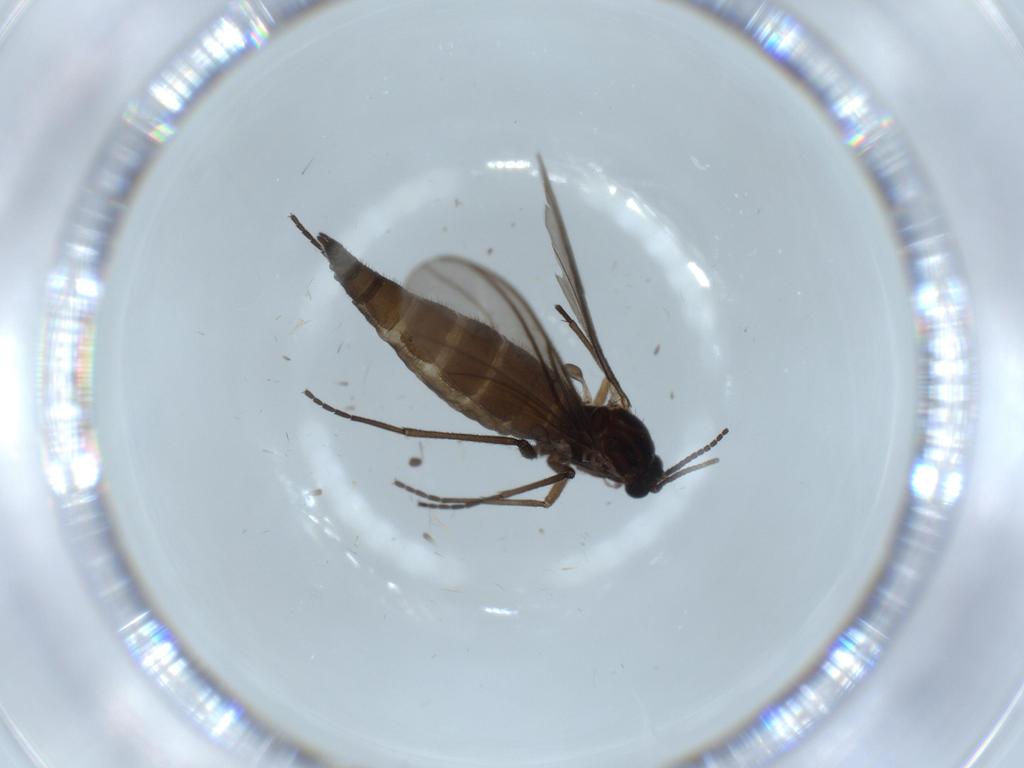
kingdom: Animalia
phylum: Arthropoda
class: Insecta
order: Diptera
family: Sciaridae
